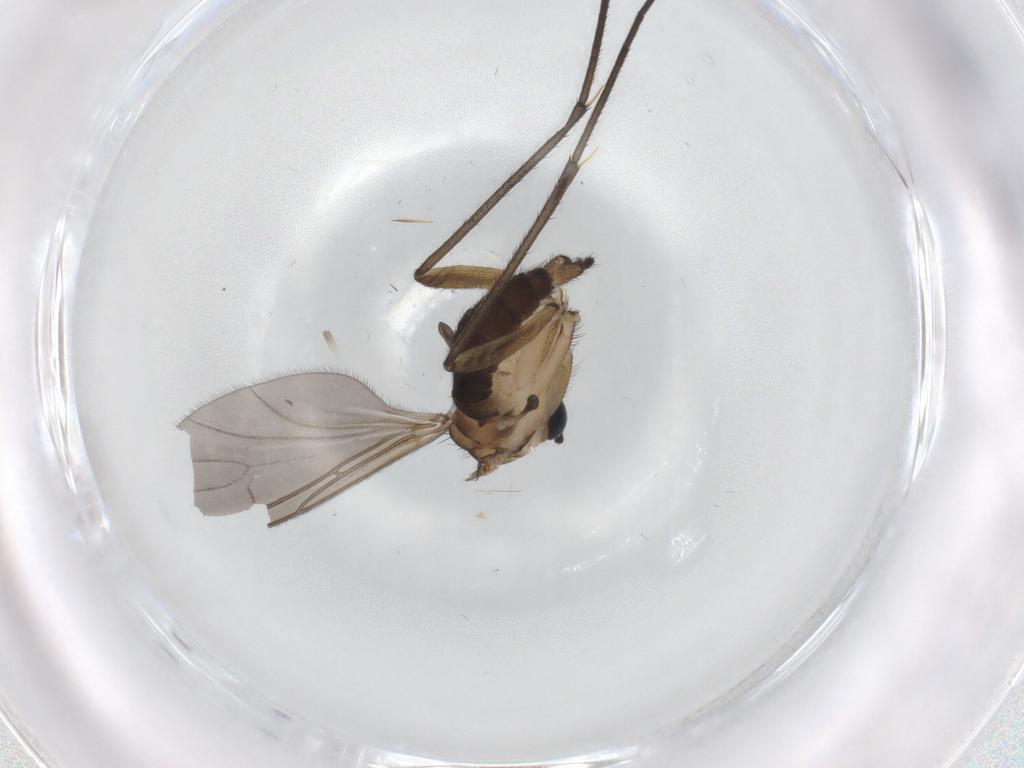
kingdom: Animalia
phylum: Arthropoda
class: Insecta
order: Diptera
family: Cecidomyiidae
